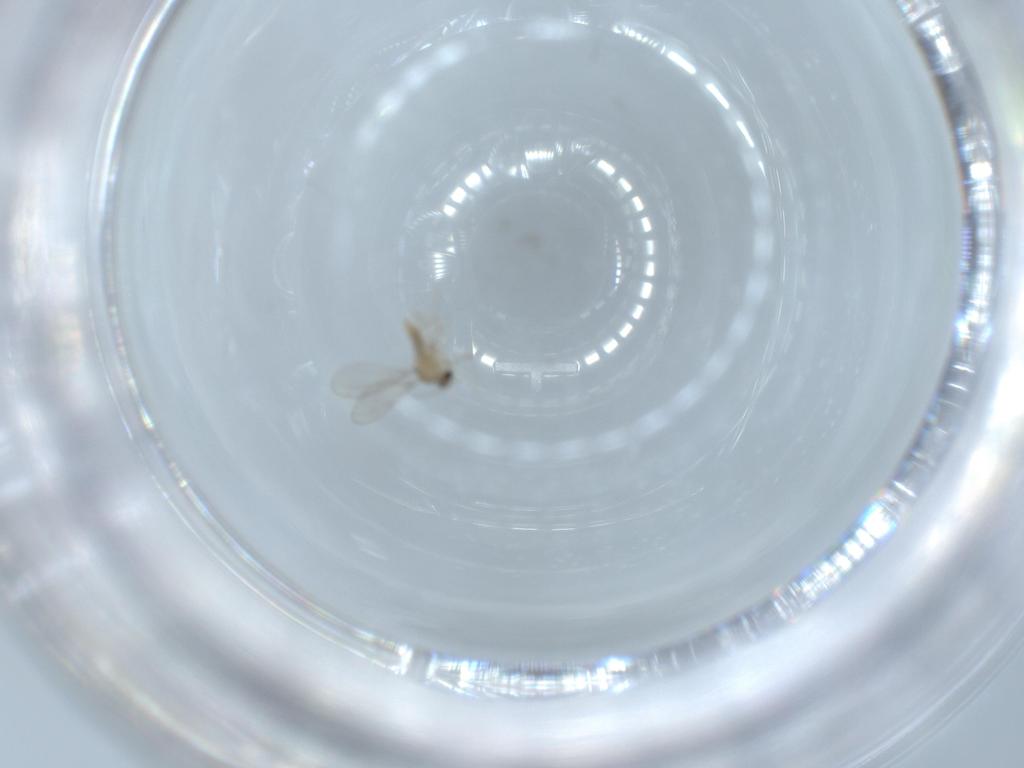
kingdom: Animalia
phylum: Arthropoda
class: Insecta
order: Diptera
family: Cecidomyiidae
